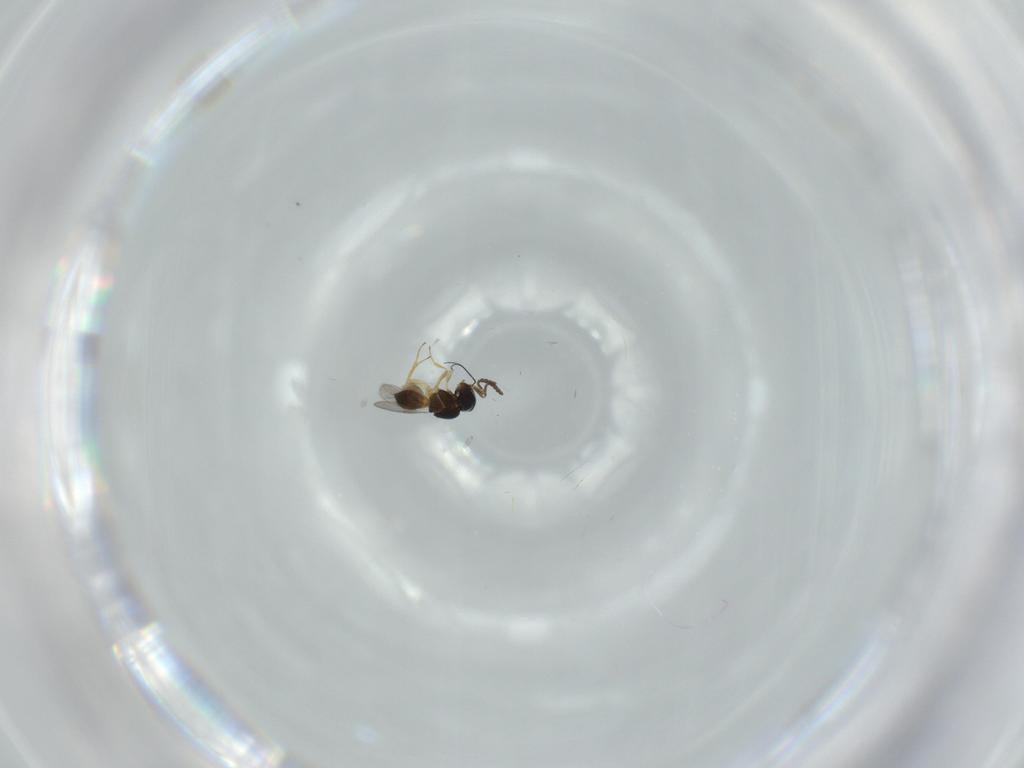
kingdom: Animalia
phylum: Arthropoda
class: Insecta
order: Hymenoptera
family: Scelionidae
